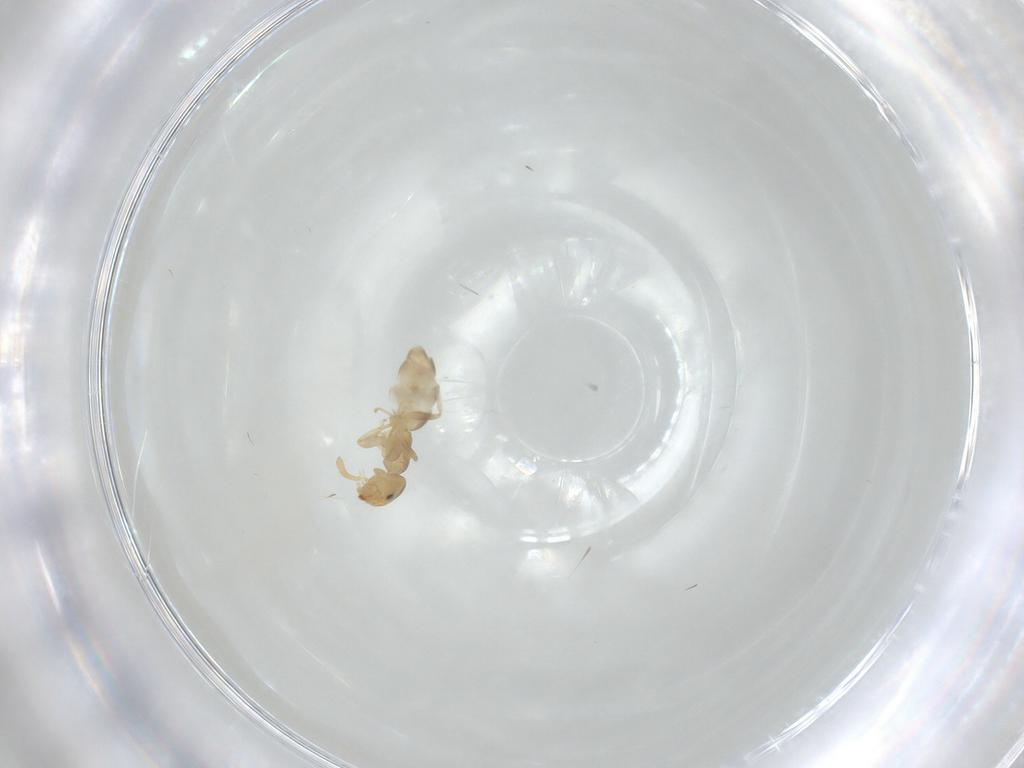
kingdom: Animalia
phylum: Arthropoda
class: Insecta
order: Hymenoptera
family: Formicidae
